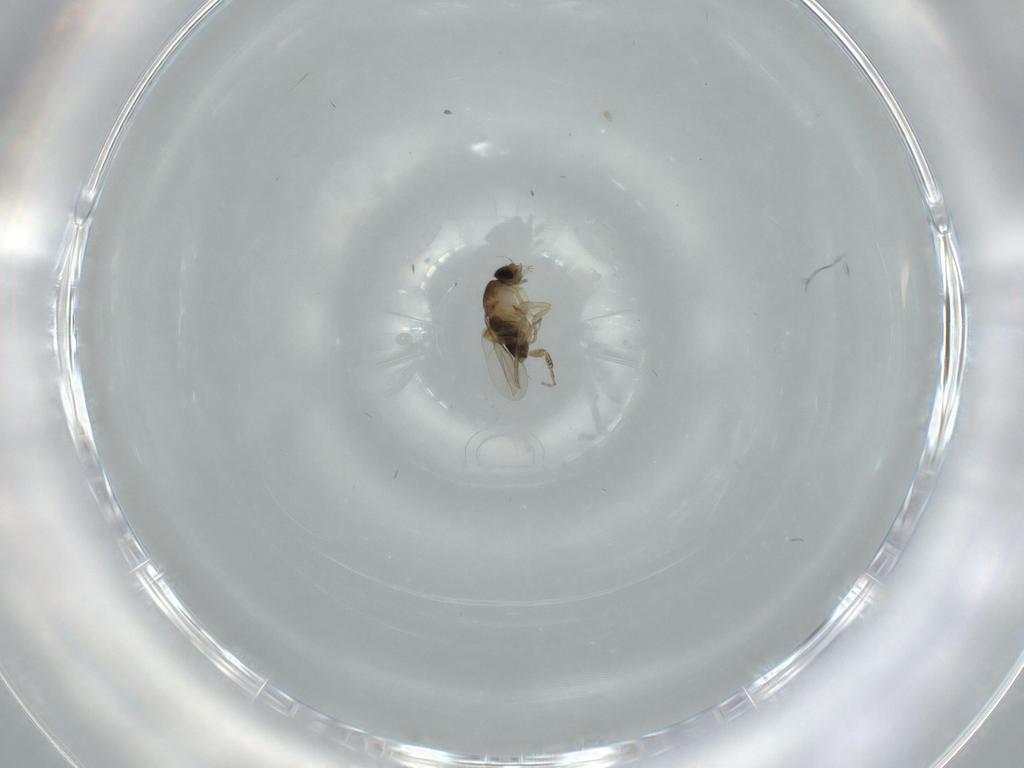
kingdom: Animalia
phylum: Arthropoda
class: Insecta
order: Diptera
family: Phoridae
